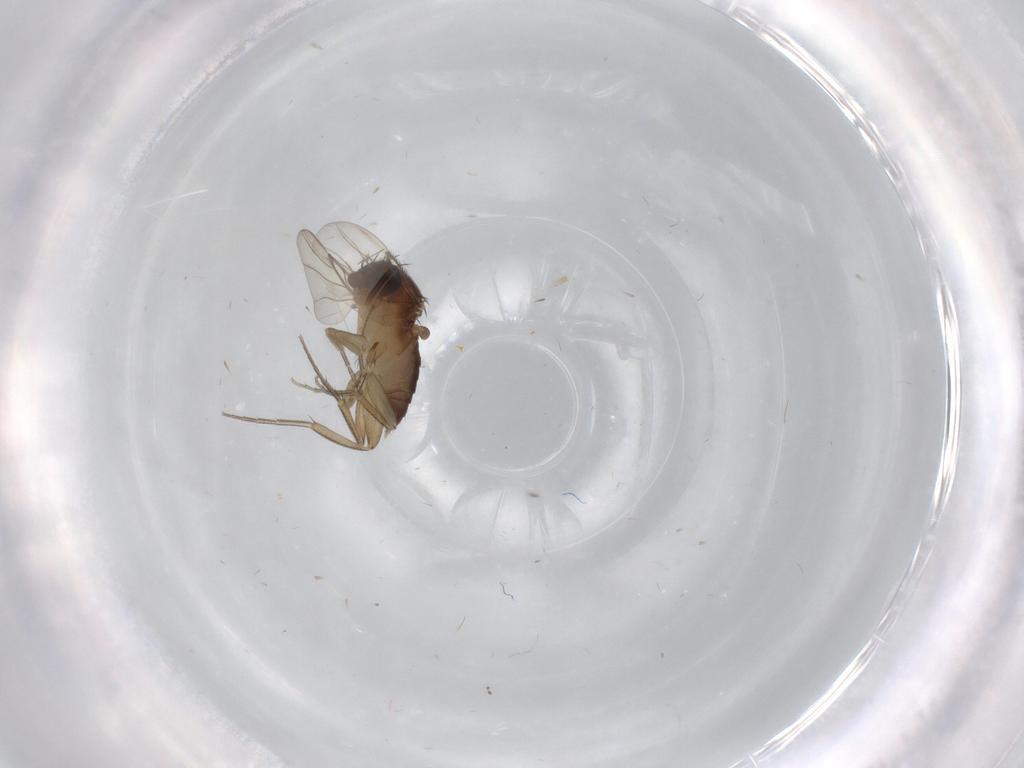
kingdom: Animalia
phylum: Arthropoda
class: Insecta
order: Diptera
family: Phoridae
